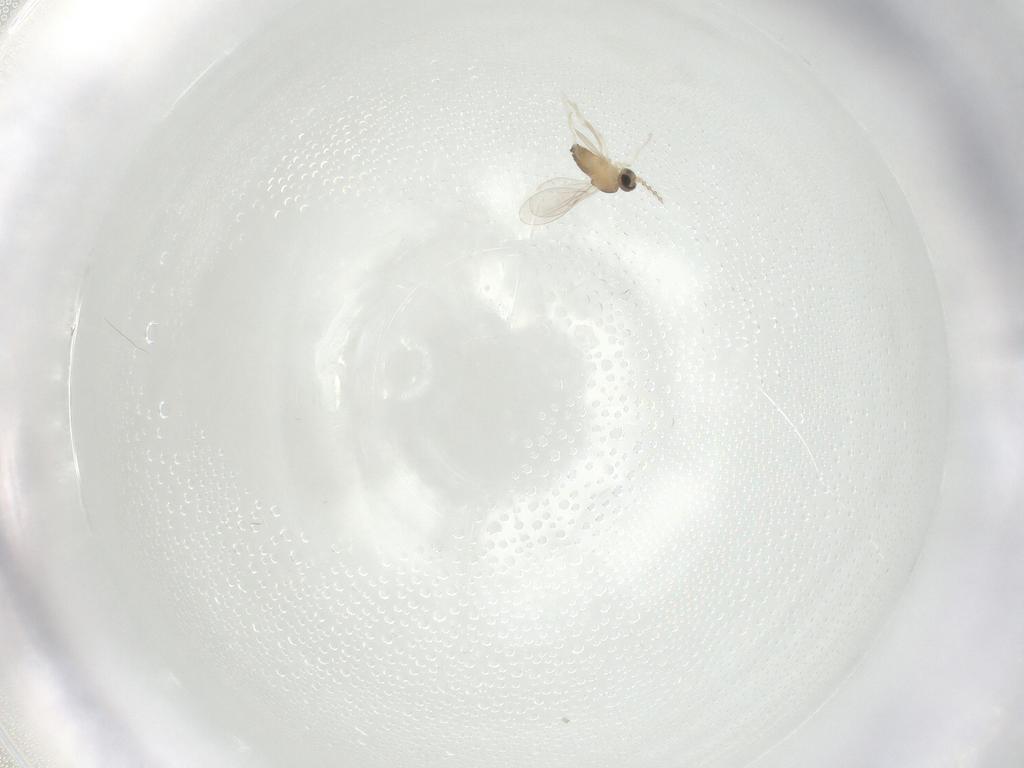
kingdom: Animalia
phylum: Arthropoda
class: Insecta
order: Diptera
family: Cecidomyiidae
